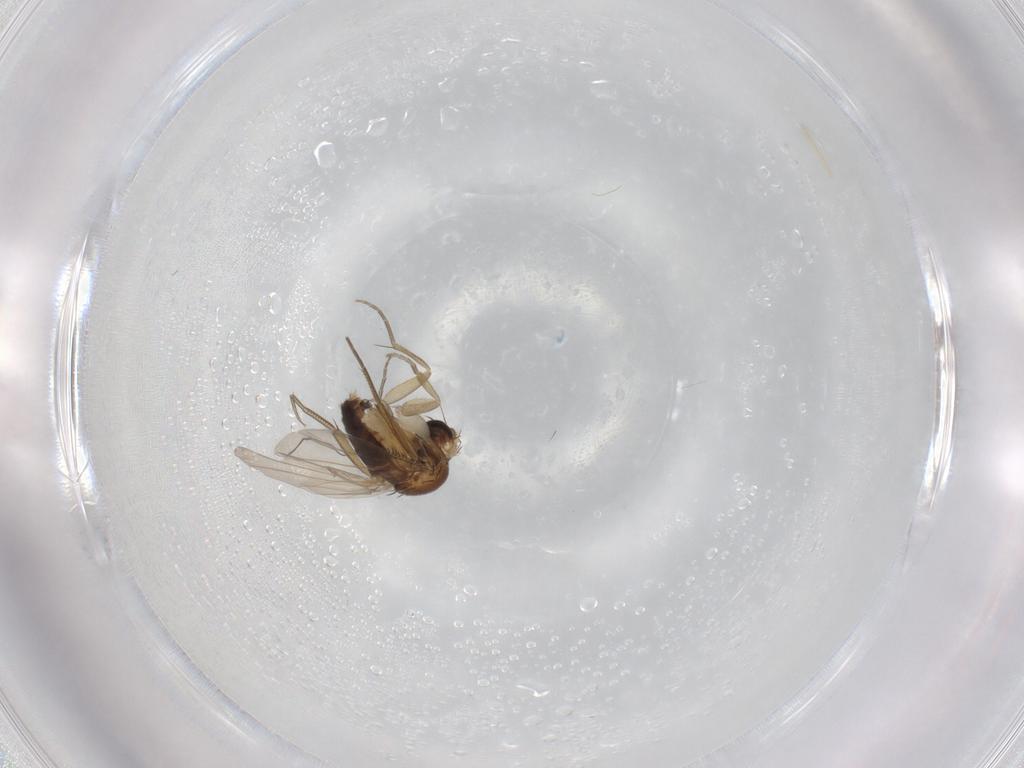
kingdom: Animalia
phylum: Arthropoda
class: Insecta
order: Diptera
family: Phoridae
